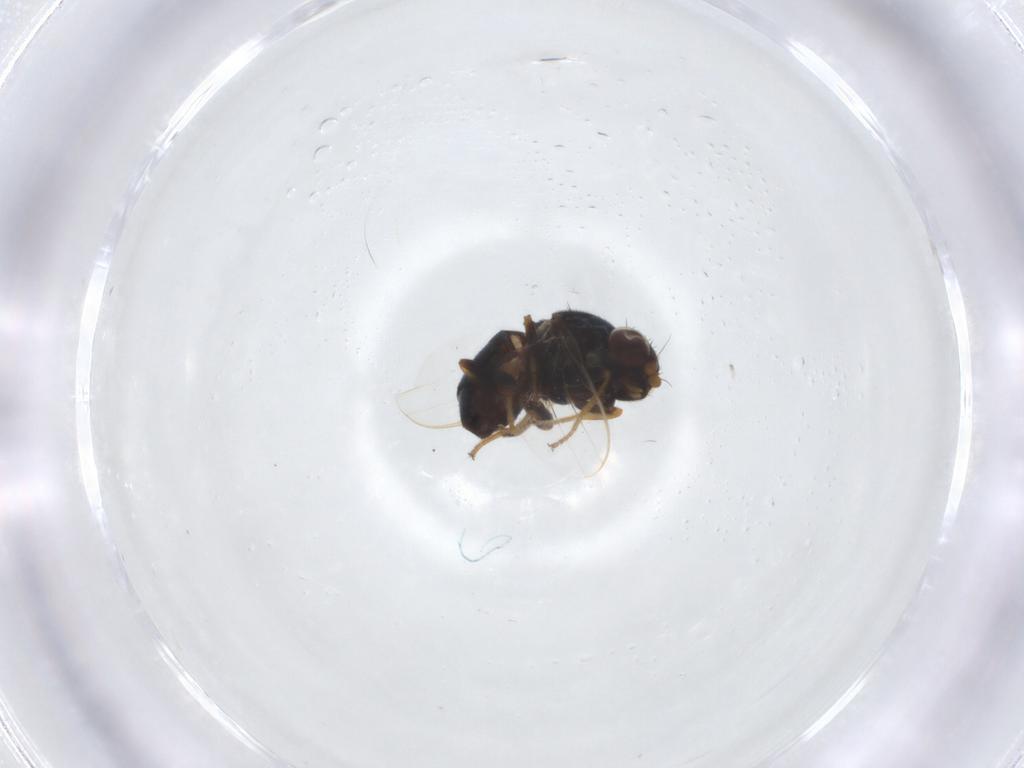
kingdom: Animalia
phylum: Arthropoda
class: Insecta
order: Diptera
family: Chloropidae
